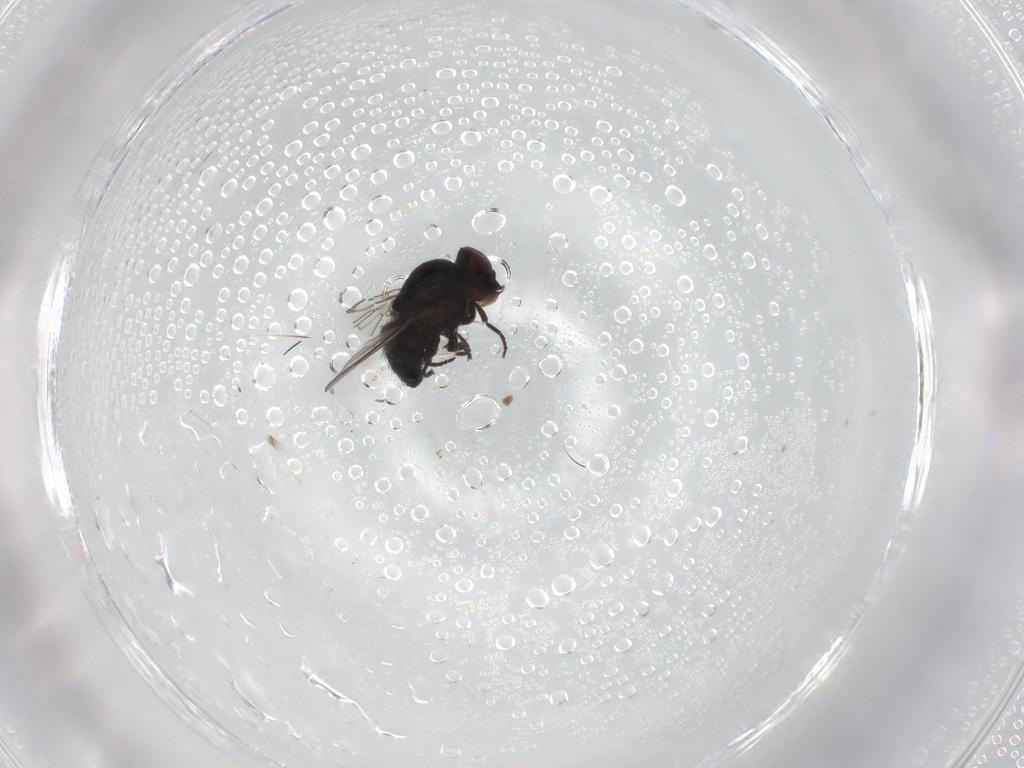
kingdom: Animalia
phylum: Arthropoda
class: Insecta
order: Diptera
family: Agromyzidae
